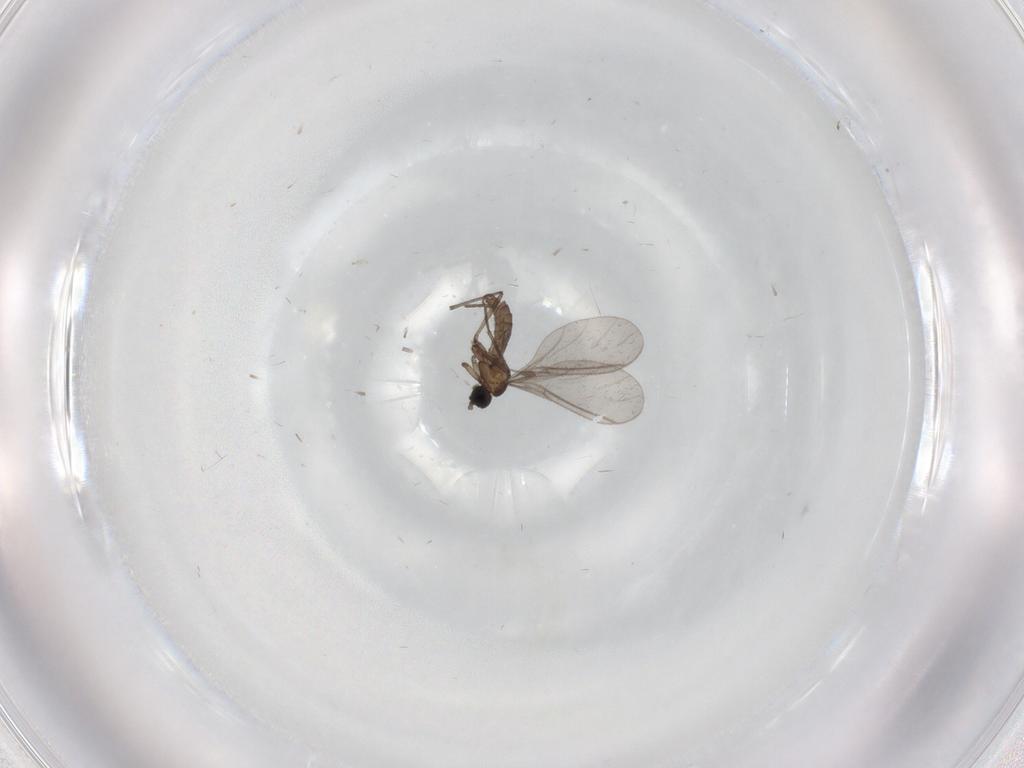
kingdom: Animalia
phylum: Arthropoda
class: Insecta
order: Diptera
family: Sciaridae
